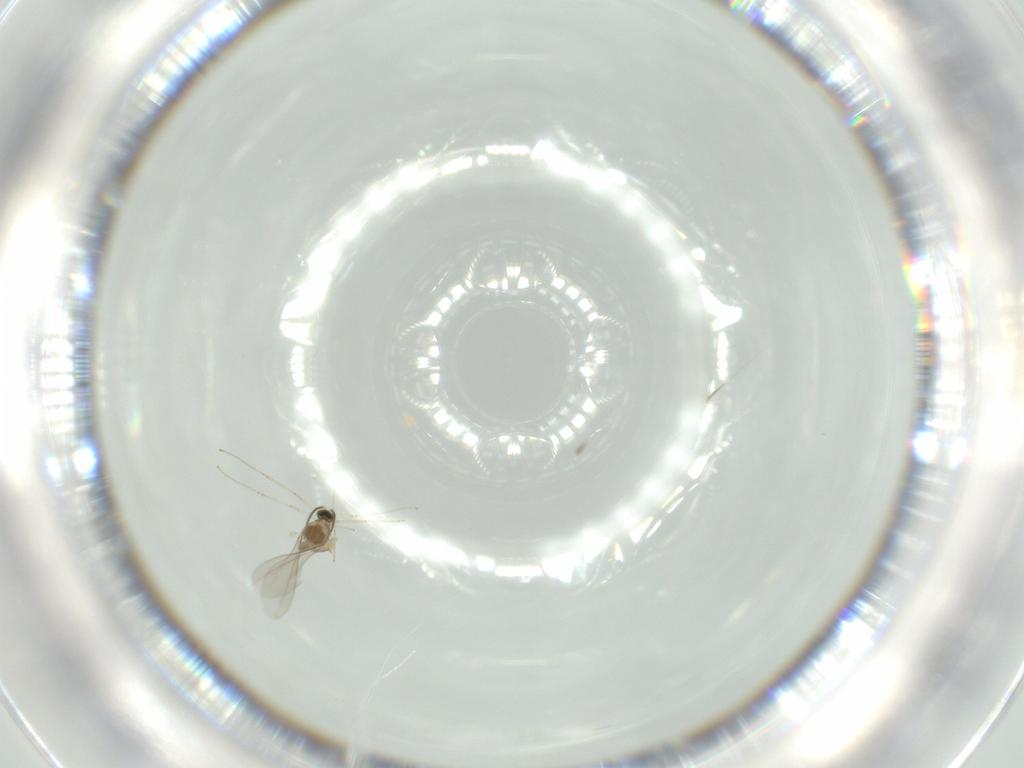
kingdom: Animalia
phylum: Arthropoda
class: Insecta
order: Diptera
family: Cecidomyiidae
